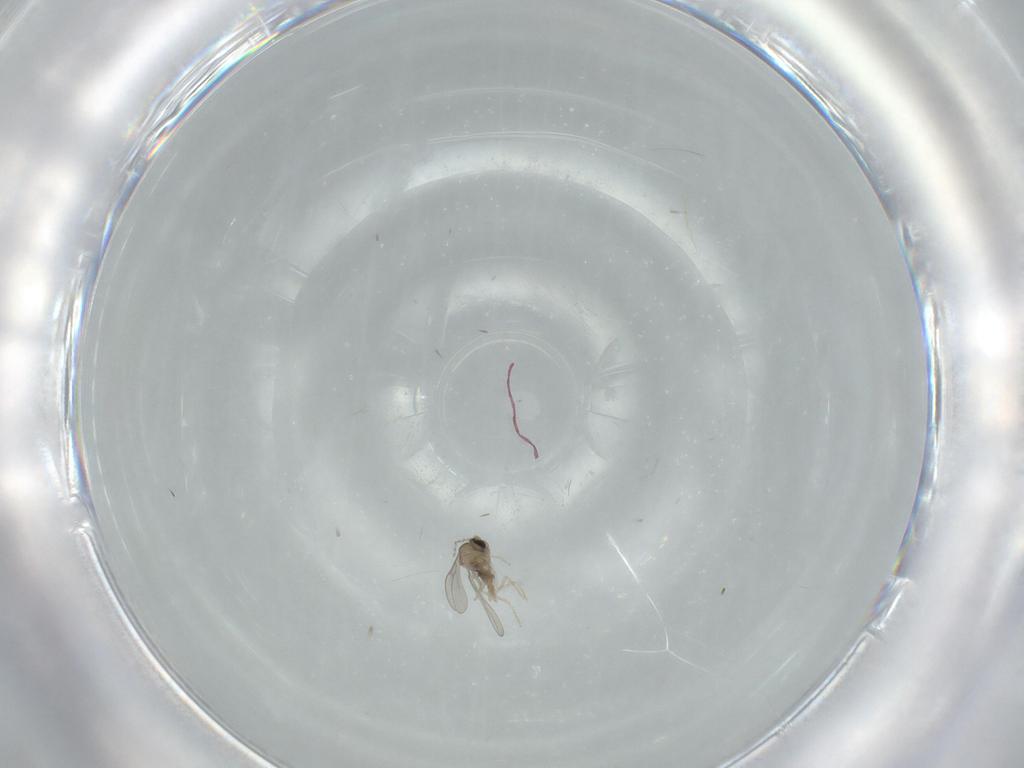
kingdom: Animalia
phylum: Arthropoda
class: Insecta
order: Diptera
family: Cecidomyiidae
